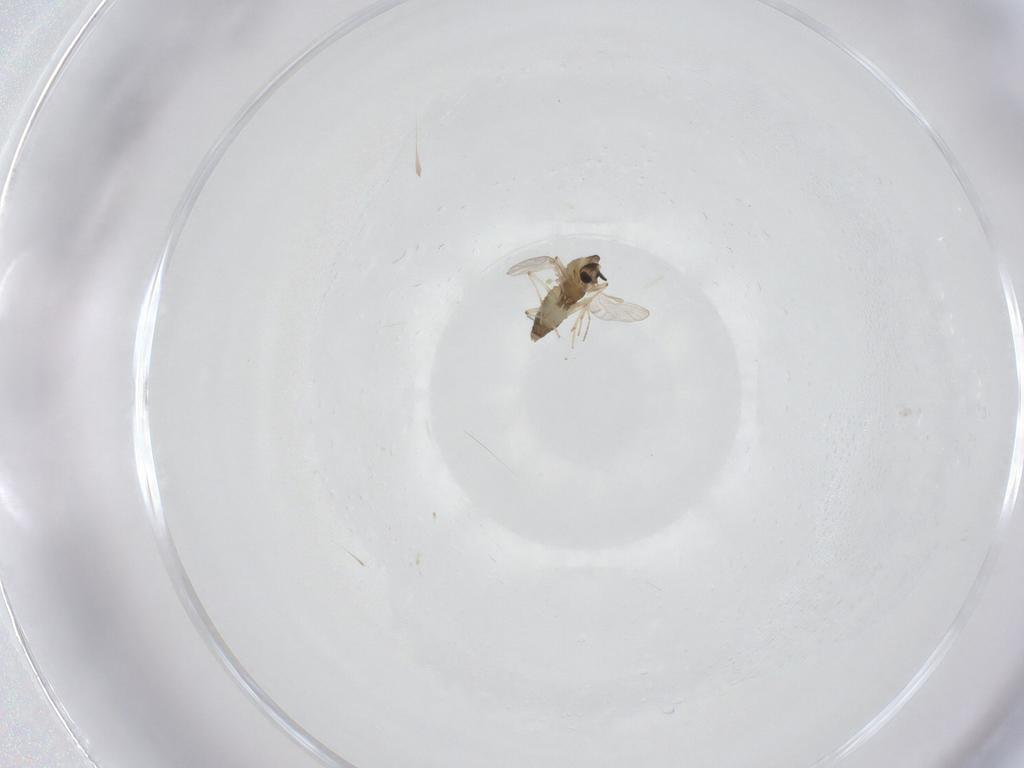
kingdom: Animalia
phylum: Arthropoda
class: Insecta
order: Diptera
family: Chironomidae
